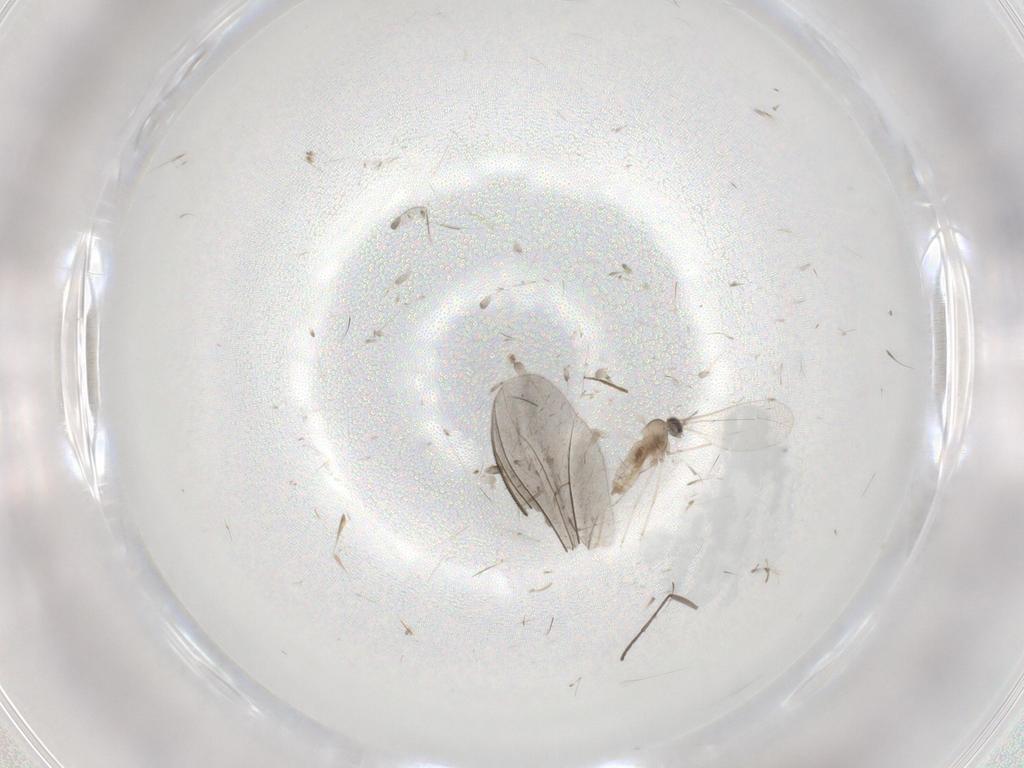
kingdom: Animalia
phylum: Arthropoda
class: Insecta
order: Diptera
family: Cecidomyiidae
